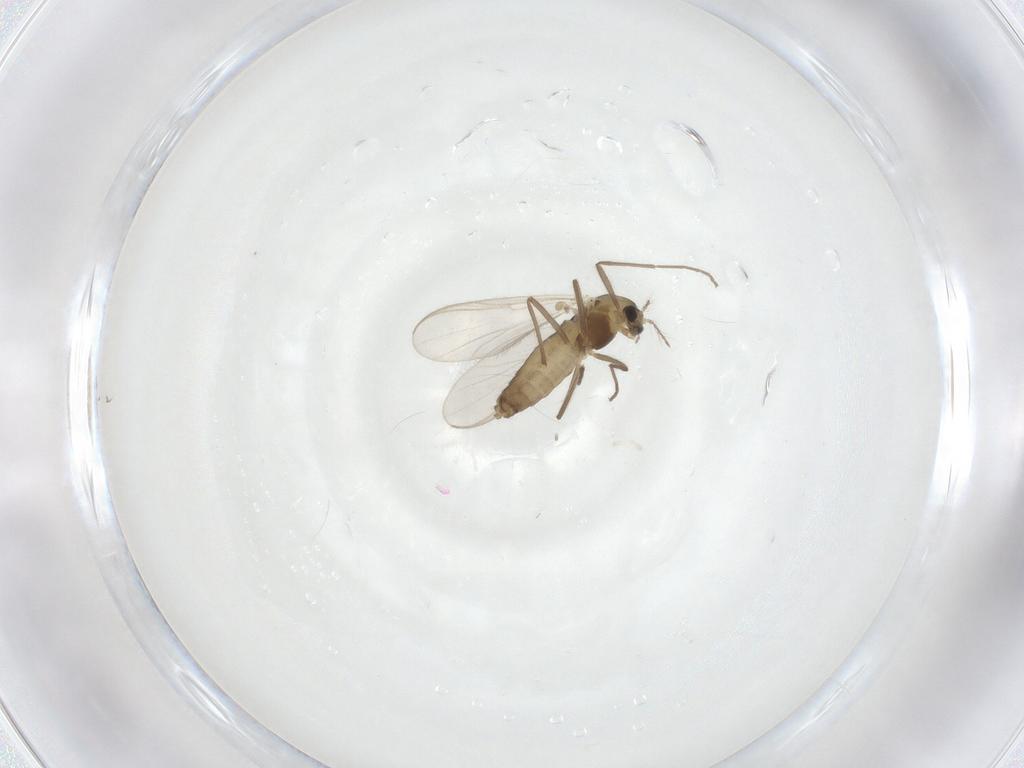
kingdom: Animalia
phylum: Arthropoda
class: Insecta
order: Diptera
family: Chironomidae
